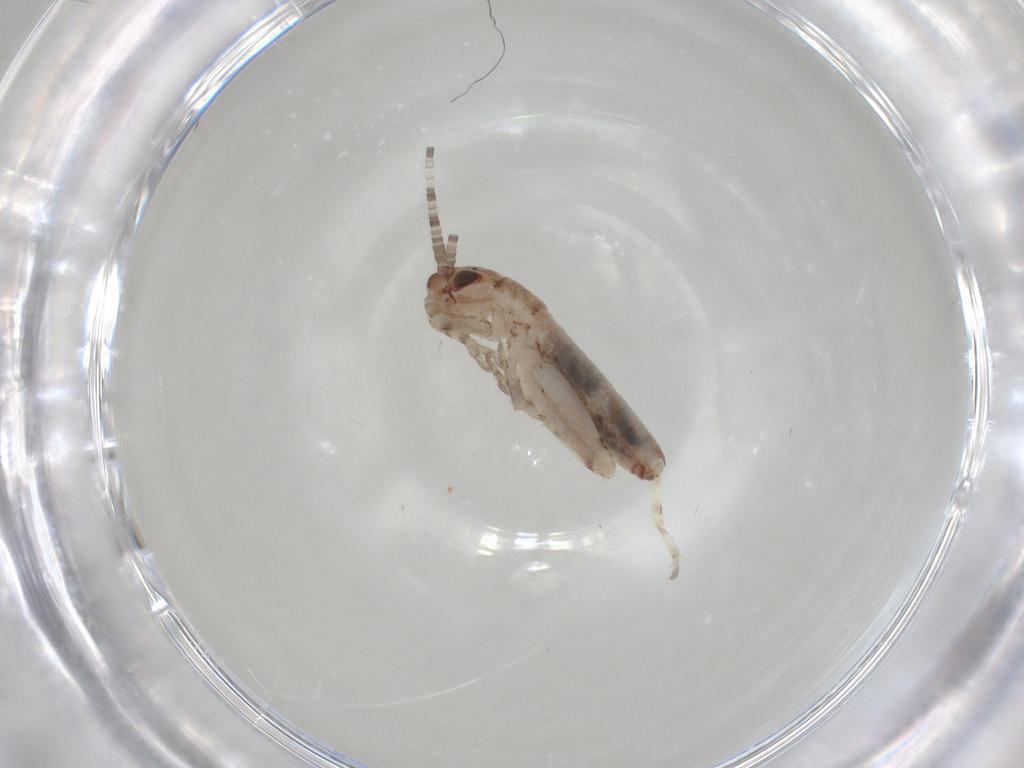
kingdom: Animalia
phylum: Arthropoda
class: Insecta
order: Orthoptera
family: Mogoplistidae
